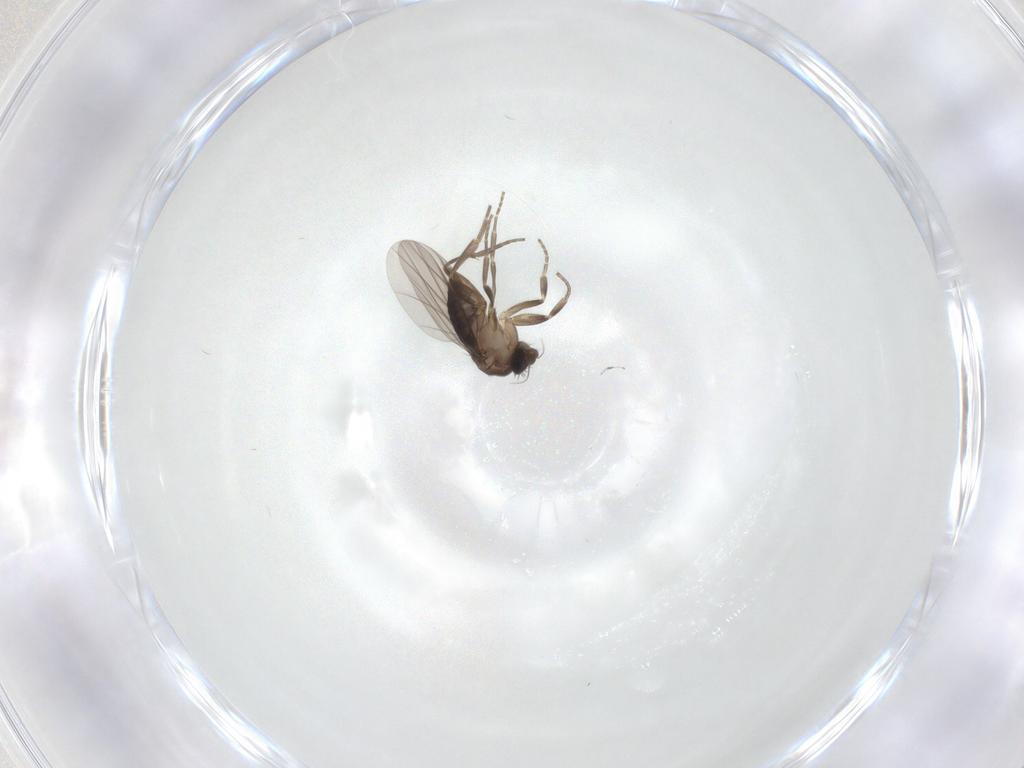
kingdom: Animalia
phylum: Arthropoda
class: Insecta
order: Diptera
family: Phoridae
